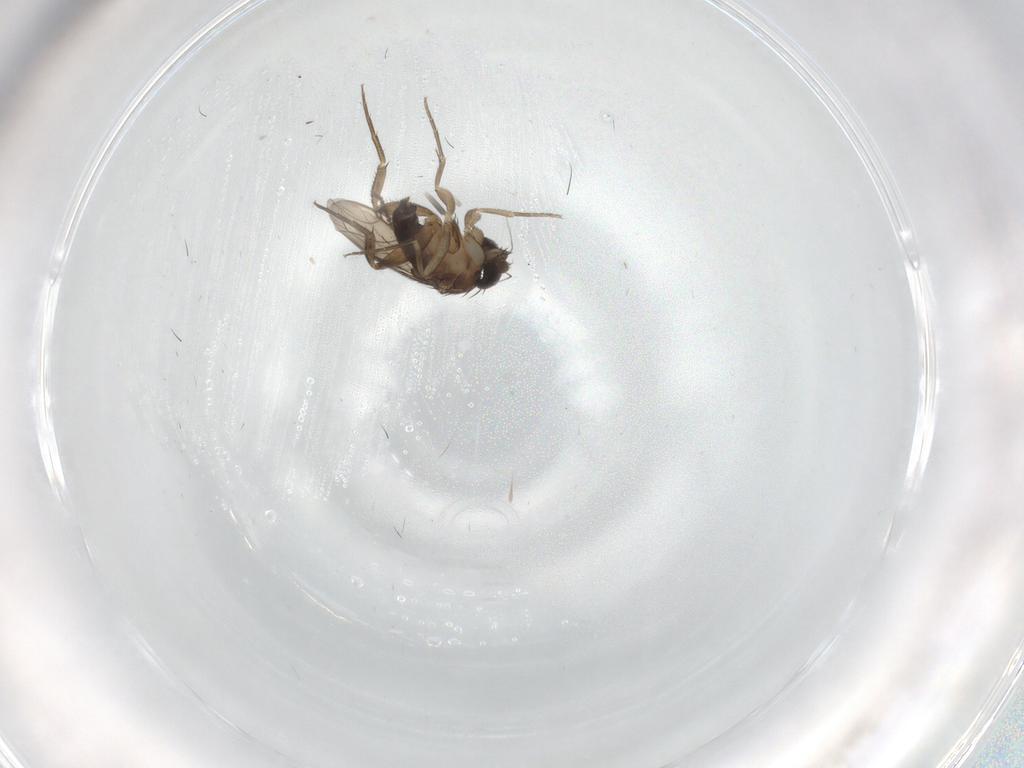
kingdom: Animalia
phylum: Arthropoda
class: Insecta
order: Diptera
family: Phoridae
